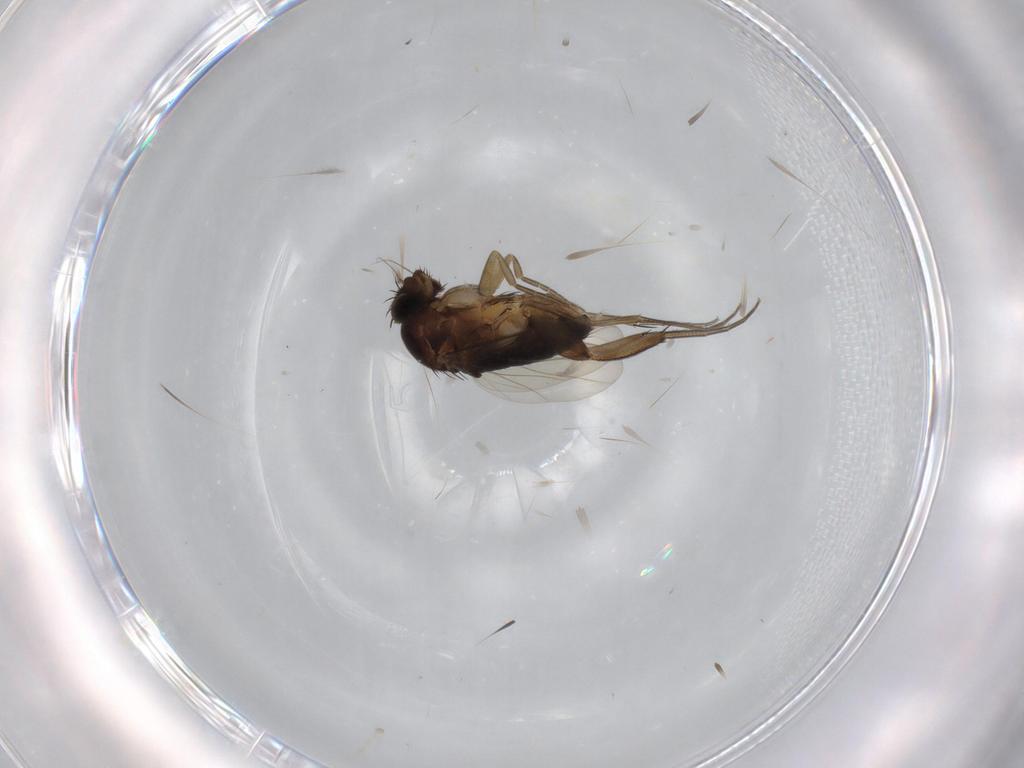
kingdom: Animalia
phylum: Arthropoda
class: Insecta
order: Diptera
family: Phoridae
